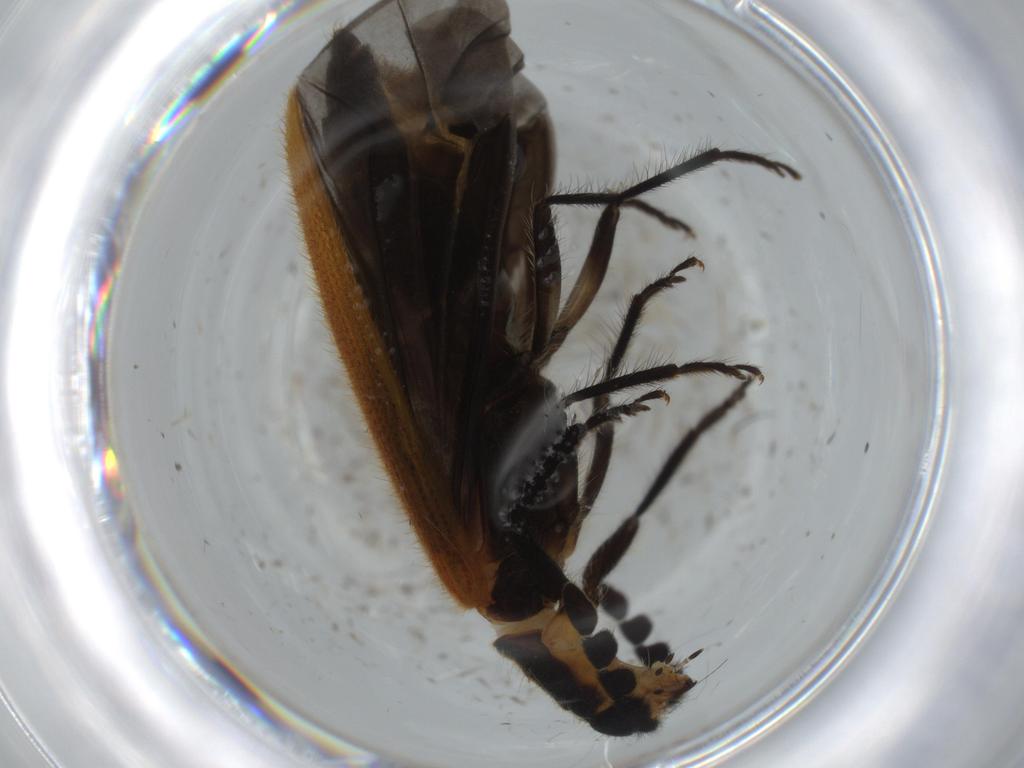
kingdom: Animalia
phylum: Arthropoda
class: Insecta
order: Coleoptera
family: Cleridae
